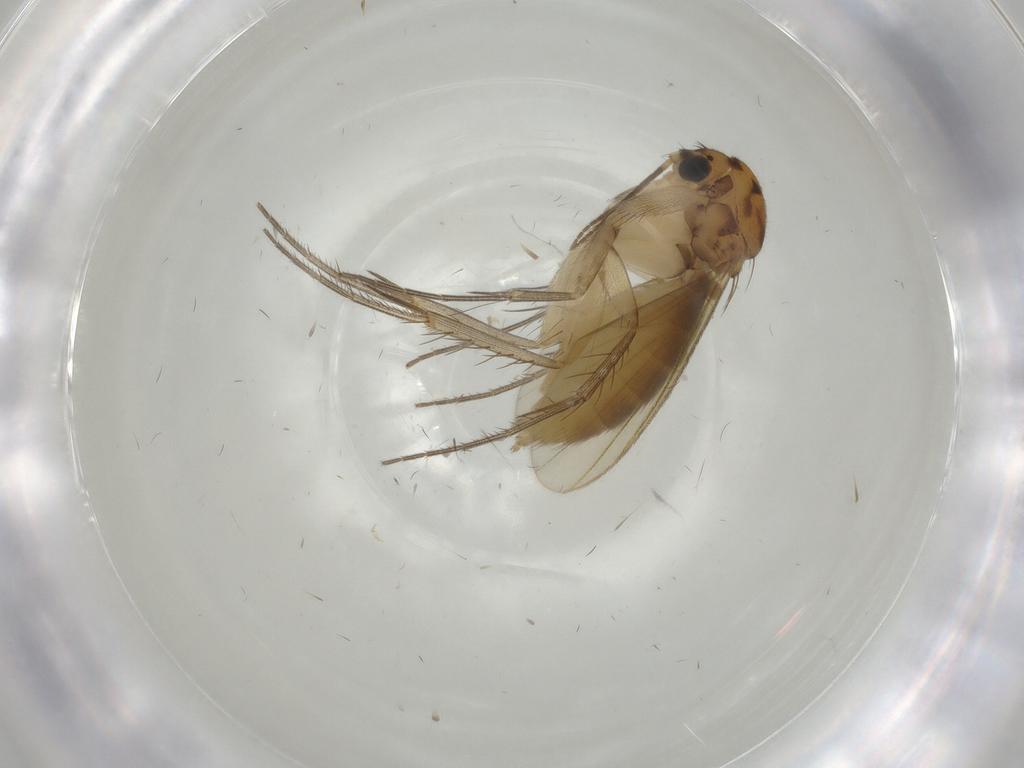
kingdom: Animalia
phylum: Arthropoda
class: Insecta
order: Diptera
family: Mycetophilidae
